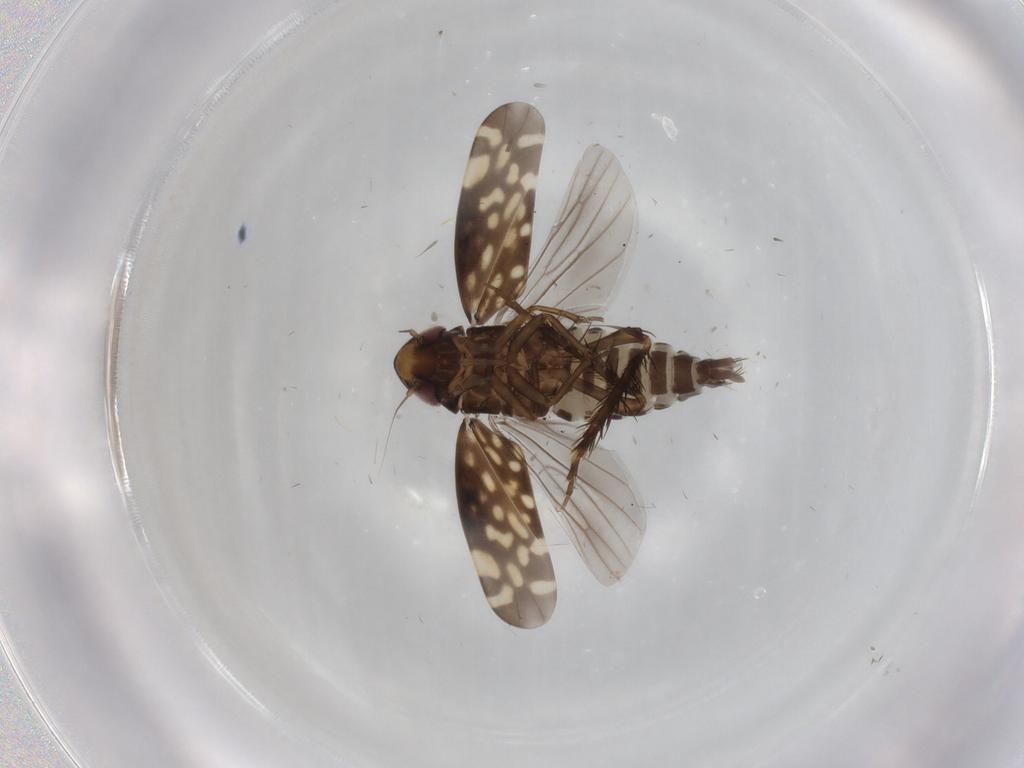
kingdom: Animalia
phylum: Arthropoda
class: Insecta
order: Hemiptera
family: Cicadellidae
